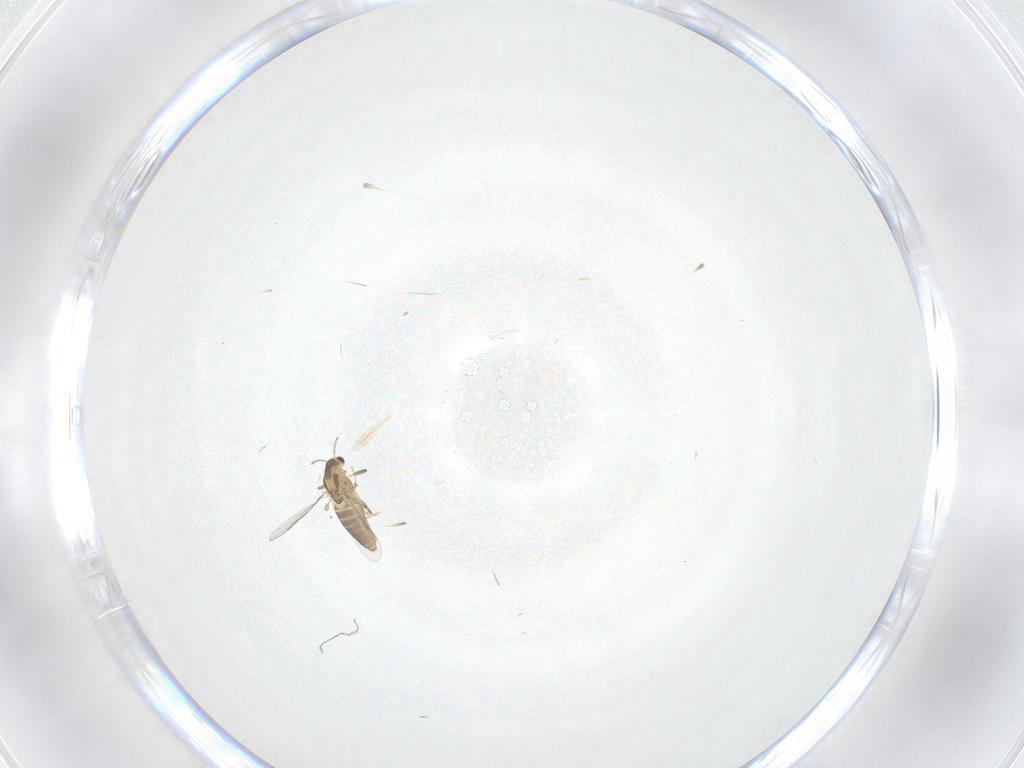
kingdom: Animalia
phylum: Arthropoda
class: Insecta
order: Diptera
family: Chironomidae
